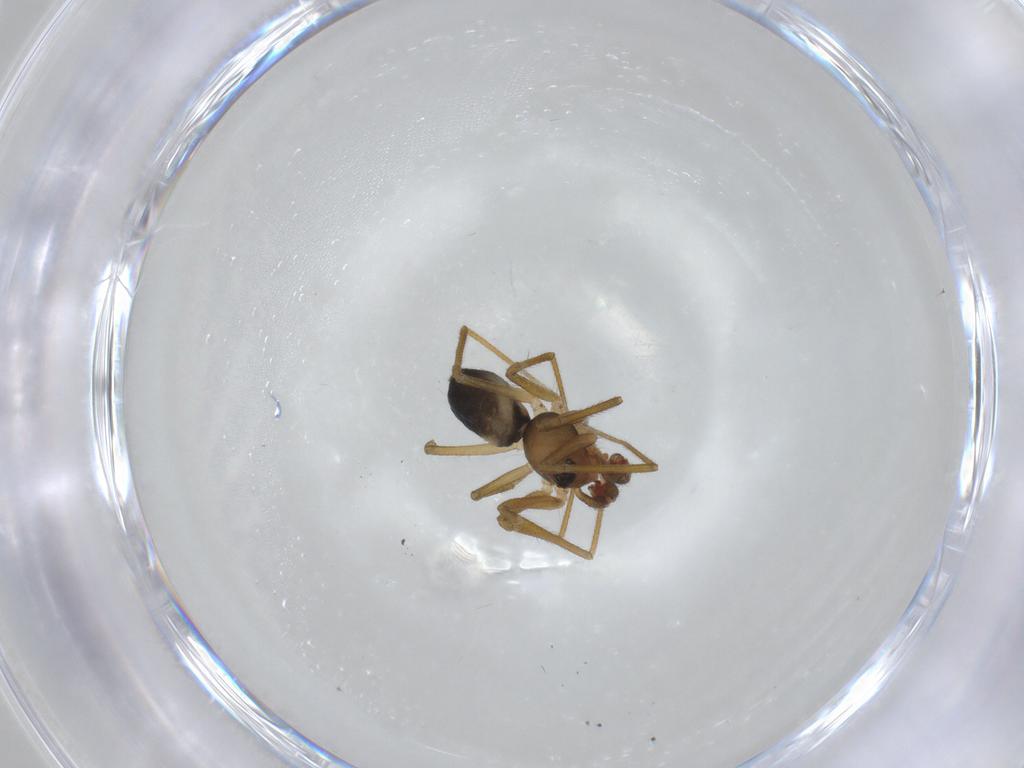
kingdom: Animalia
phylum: Arthropoda
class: Arachnida
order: Araneae
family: Linyphiidae
